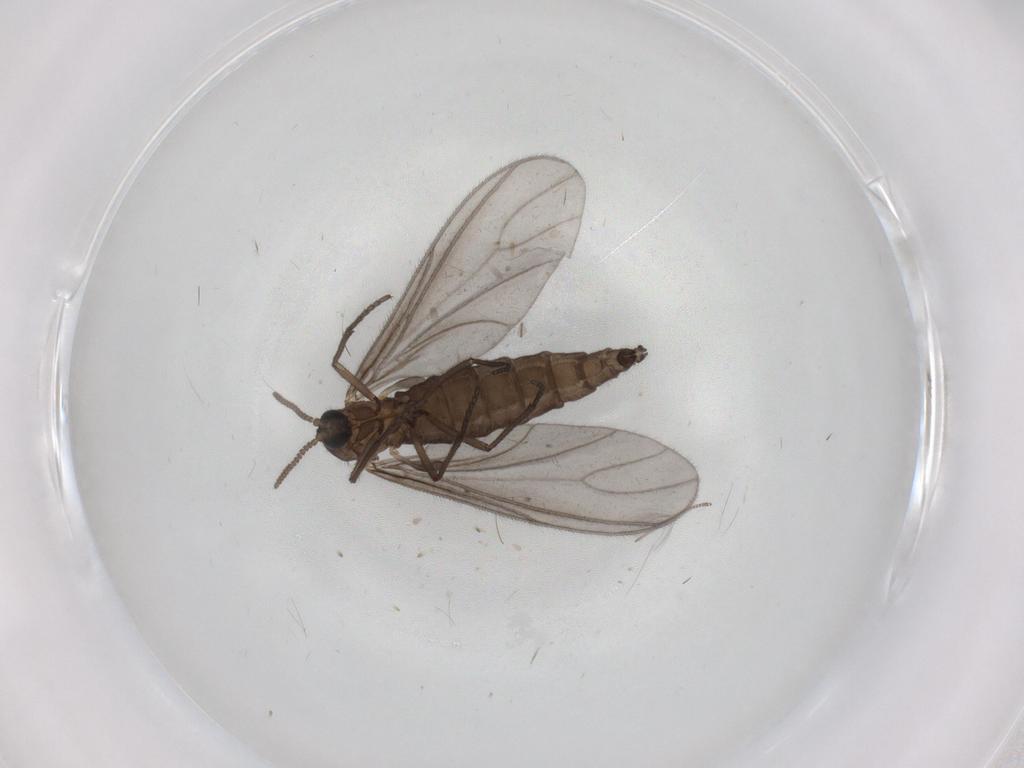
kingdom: Animalia
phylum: Arthropoda
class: Insecta
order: Diptera
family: Sciaridae
